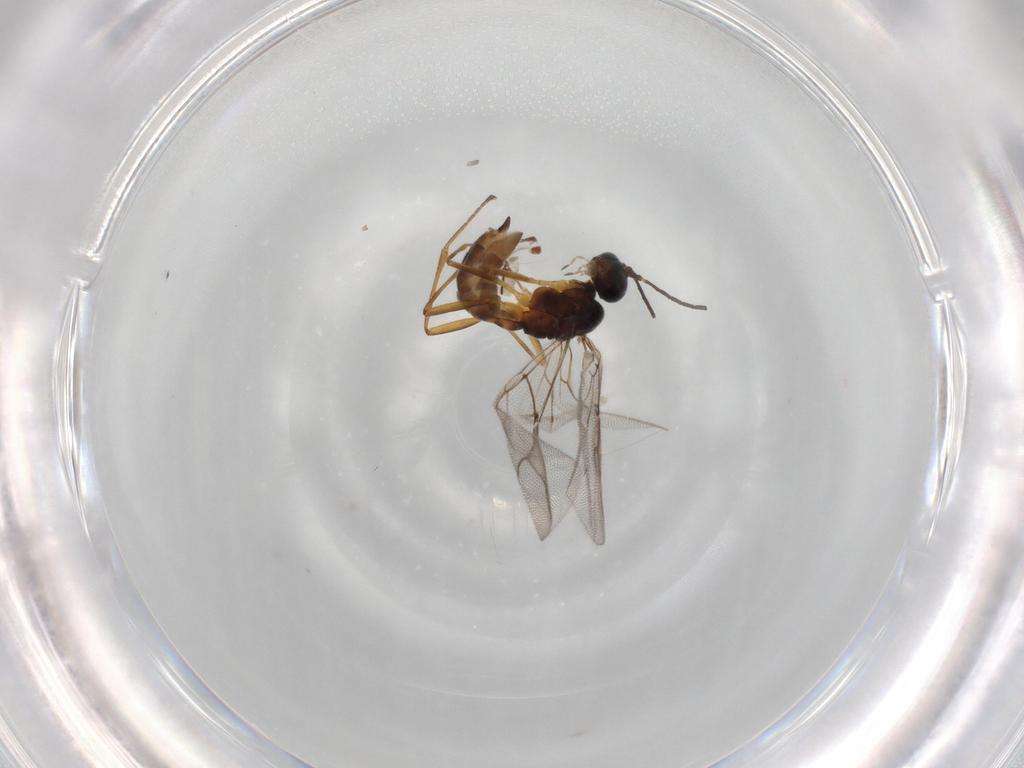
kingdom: Animalia
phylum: Arthropoda
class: Insecta
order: Hymenoptera
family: Braconidae
